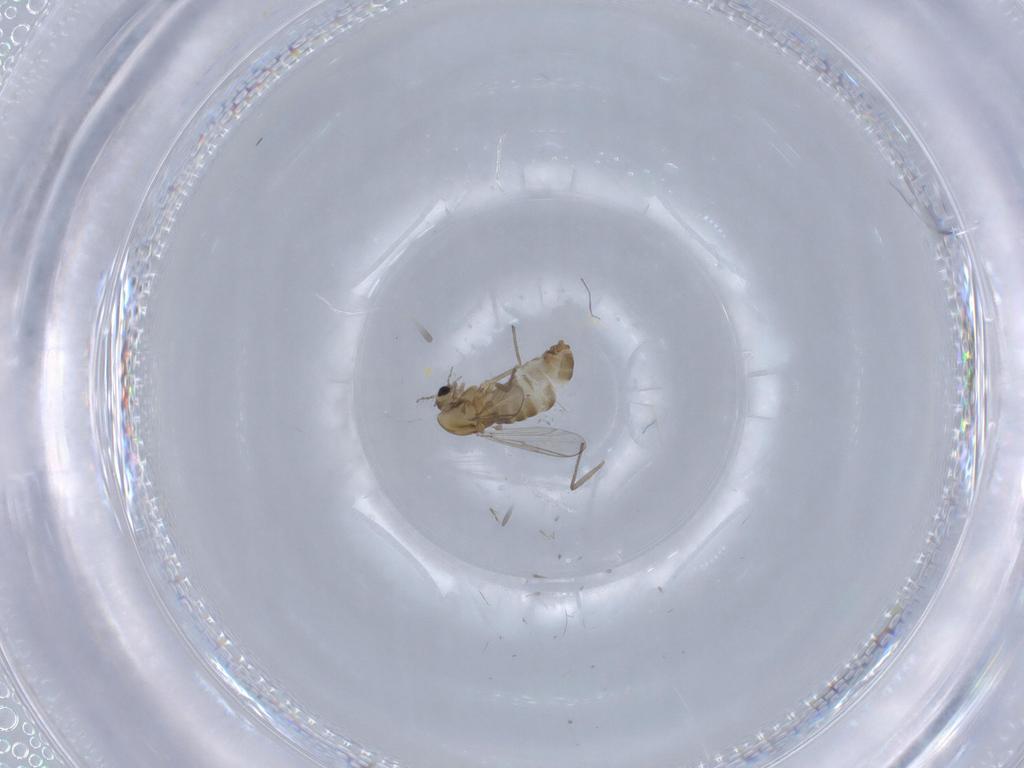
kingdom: Animalia
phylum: Arthropoda
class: Insecta
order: Diptera
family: Chironomidae
